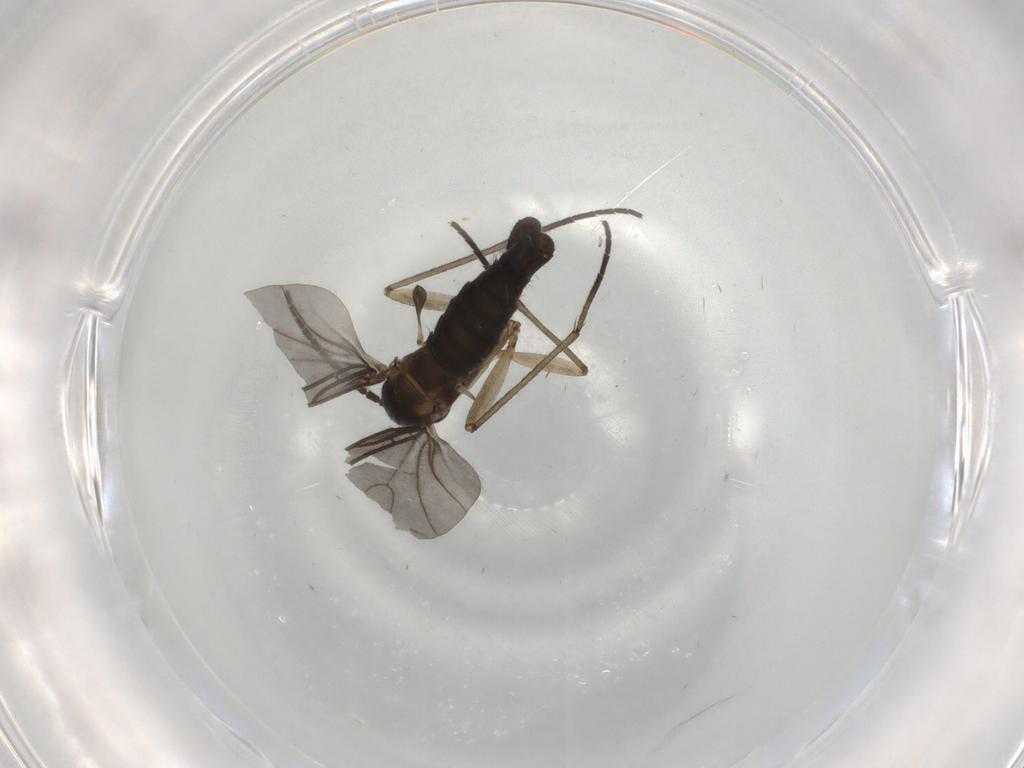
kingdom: Animalia
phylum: Arthropoda
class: Insecta
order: Diptera
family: Sciaridae
